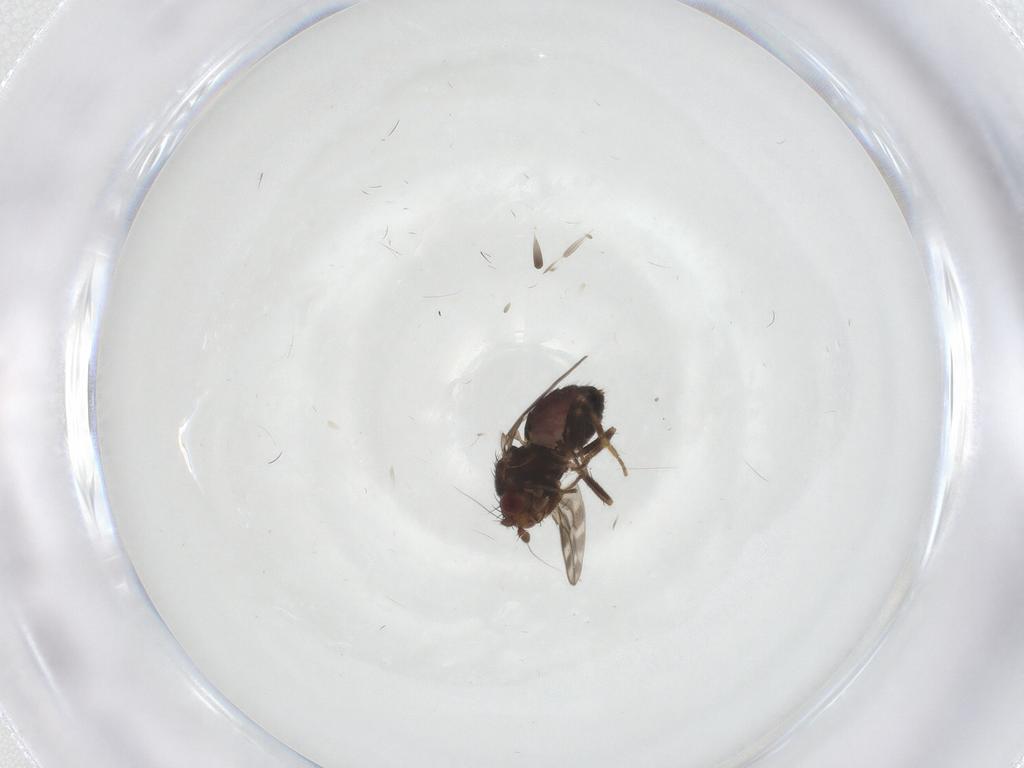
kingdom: Animalia
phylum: Arthropoda
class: Insecta
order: Diptera
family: Sphaeroceridae
